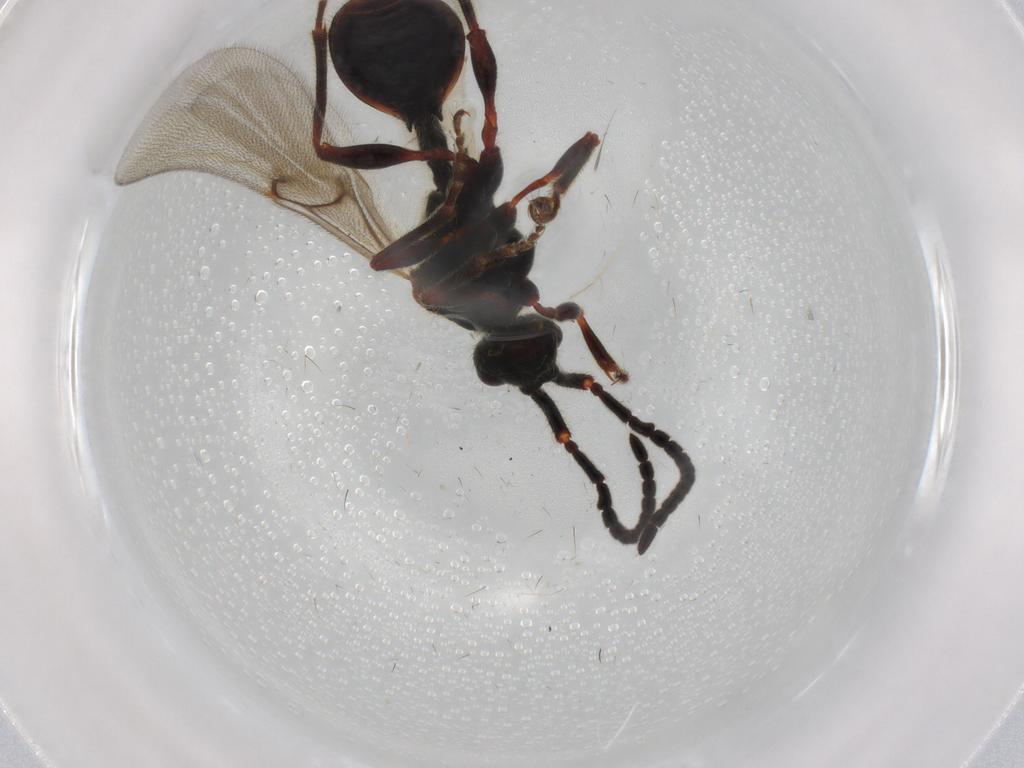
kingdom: Animalia
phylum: Arthropoda
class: Insecta
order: Hymenoptera
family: Diapriidae
